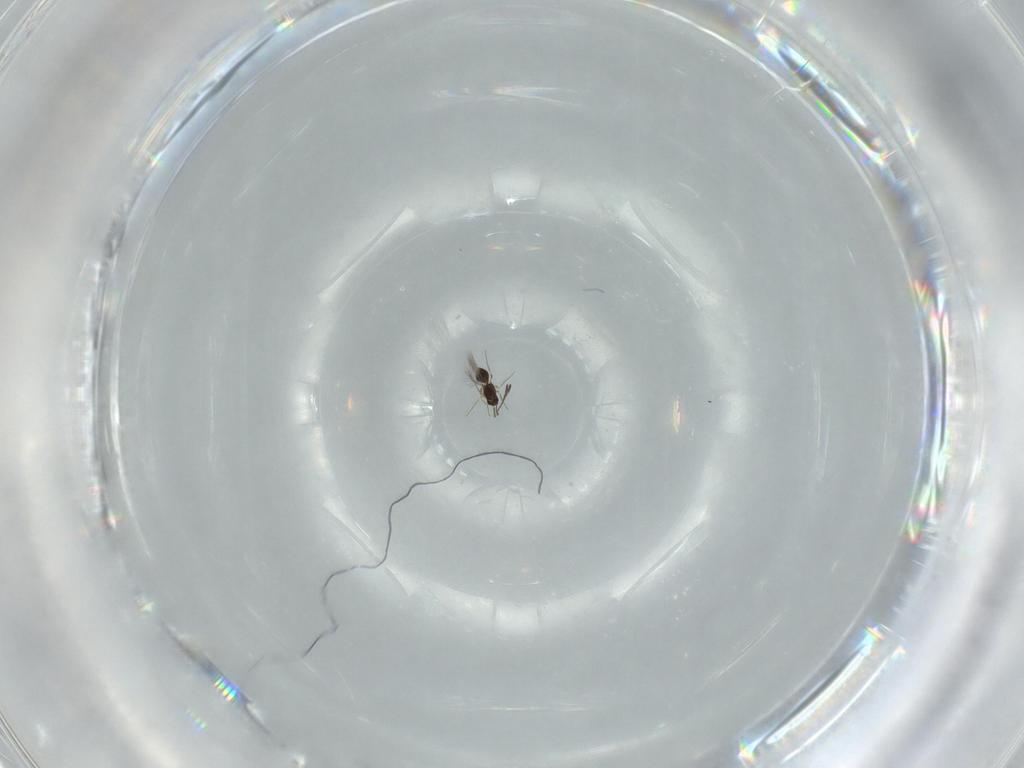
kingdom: Animalia
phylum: Arthropoda
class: Insecta
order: Hymenoptera
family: Mymaridae
